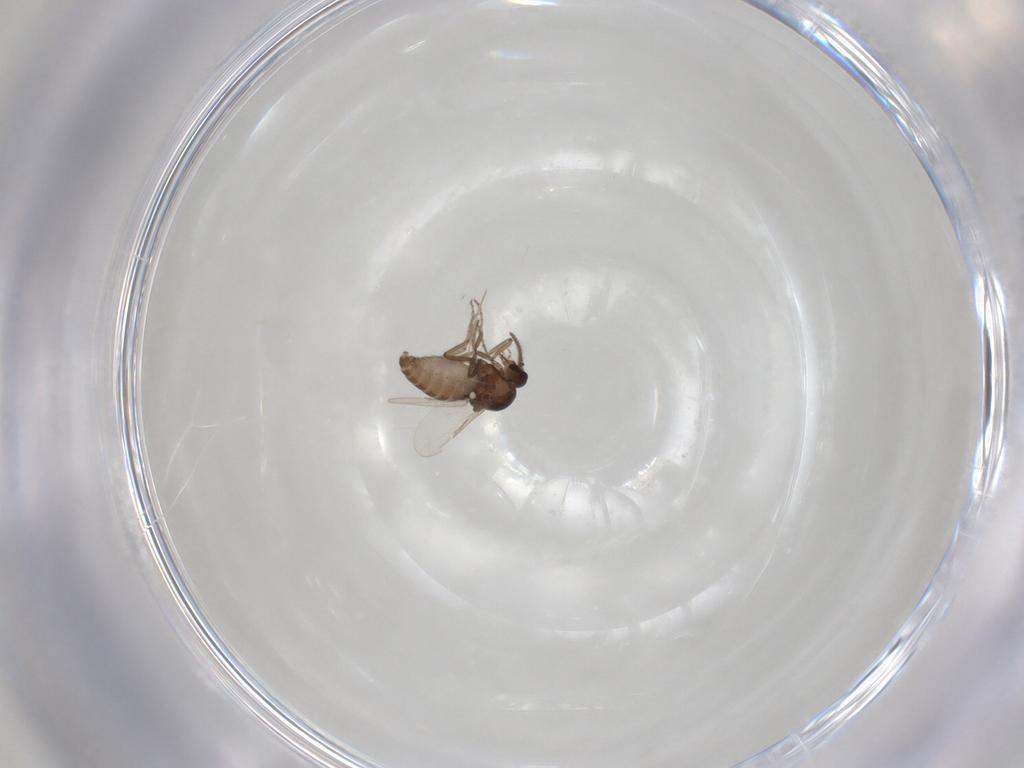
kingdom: Animalia
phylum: Arthropoda
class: Insecta
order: Diptera
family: Ceratopogonidae
